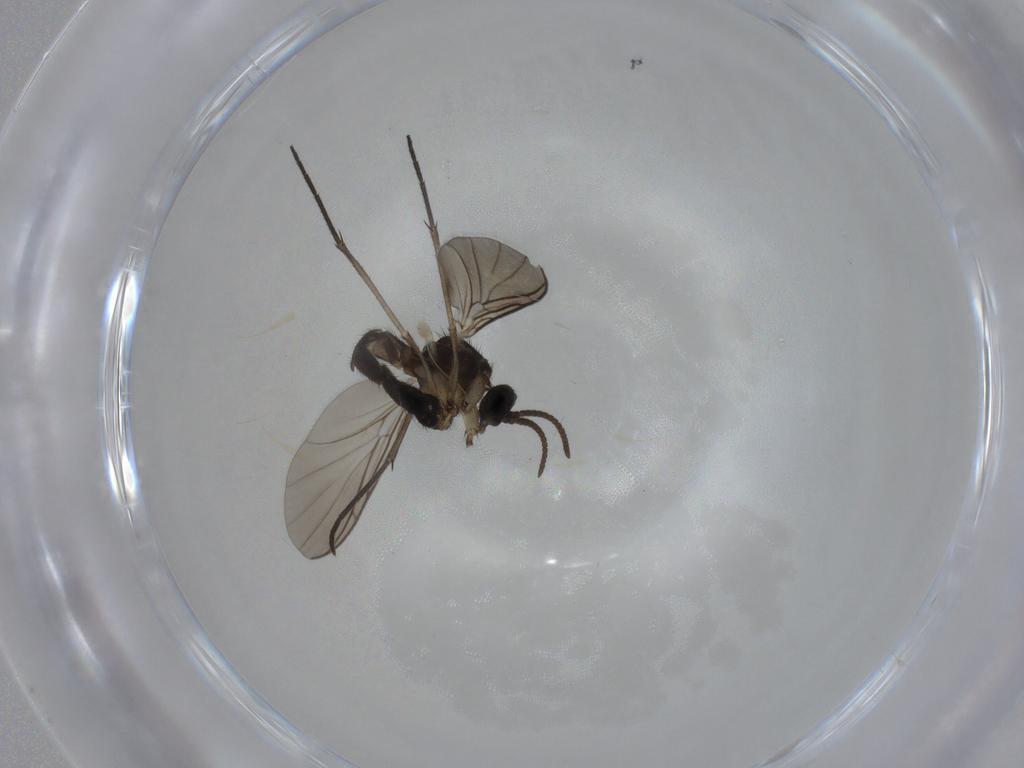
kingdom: Animalia
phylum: Arthropoda
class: Insecta
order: Diptera
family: Keroplatidae
